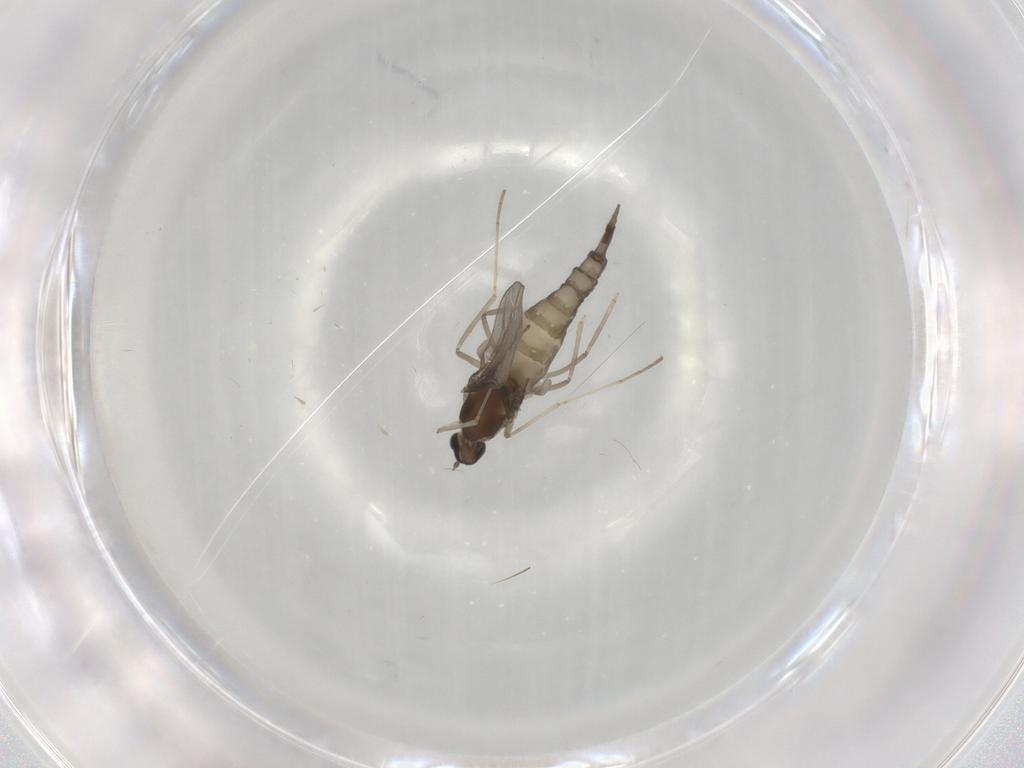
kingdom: Animalia
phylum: Arthropoda
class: Insecta
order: Diptera
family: Cecidomyiidae
